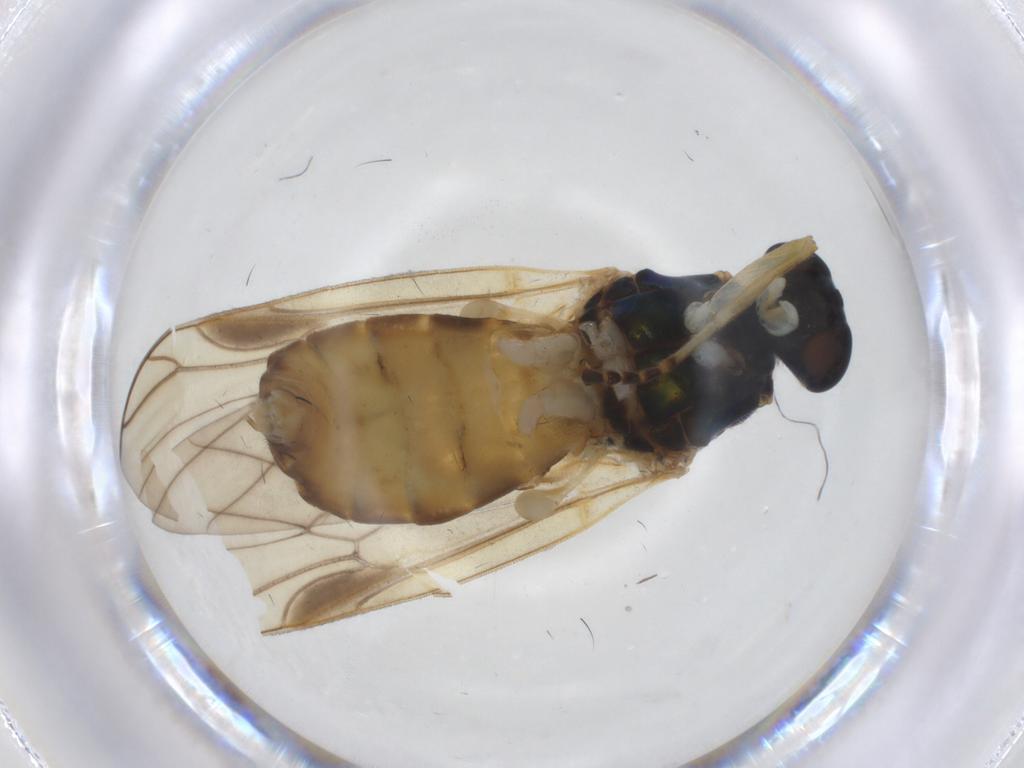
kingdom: Animalia
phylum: Arthropoda
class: Insecta
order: Diptera
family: Stratiomyidae
